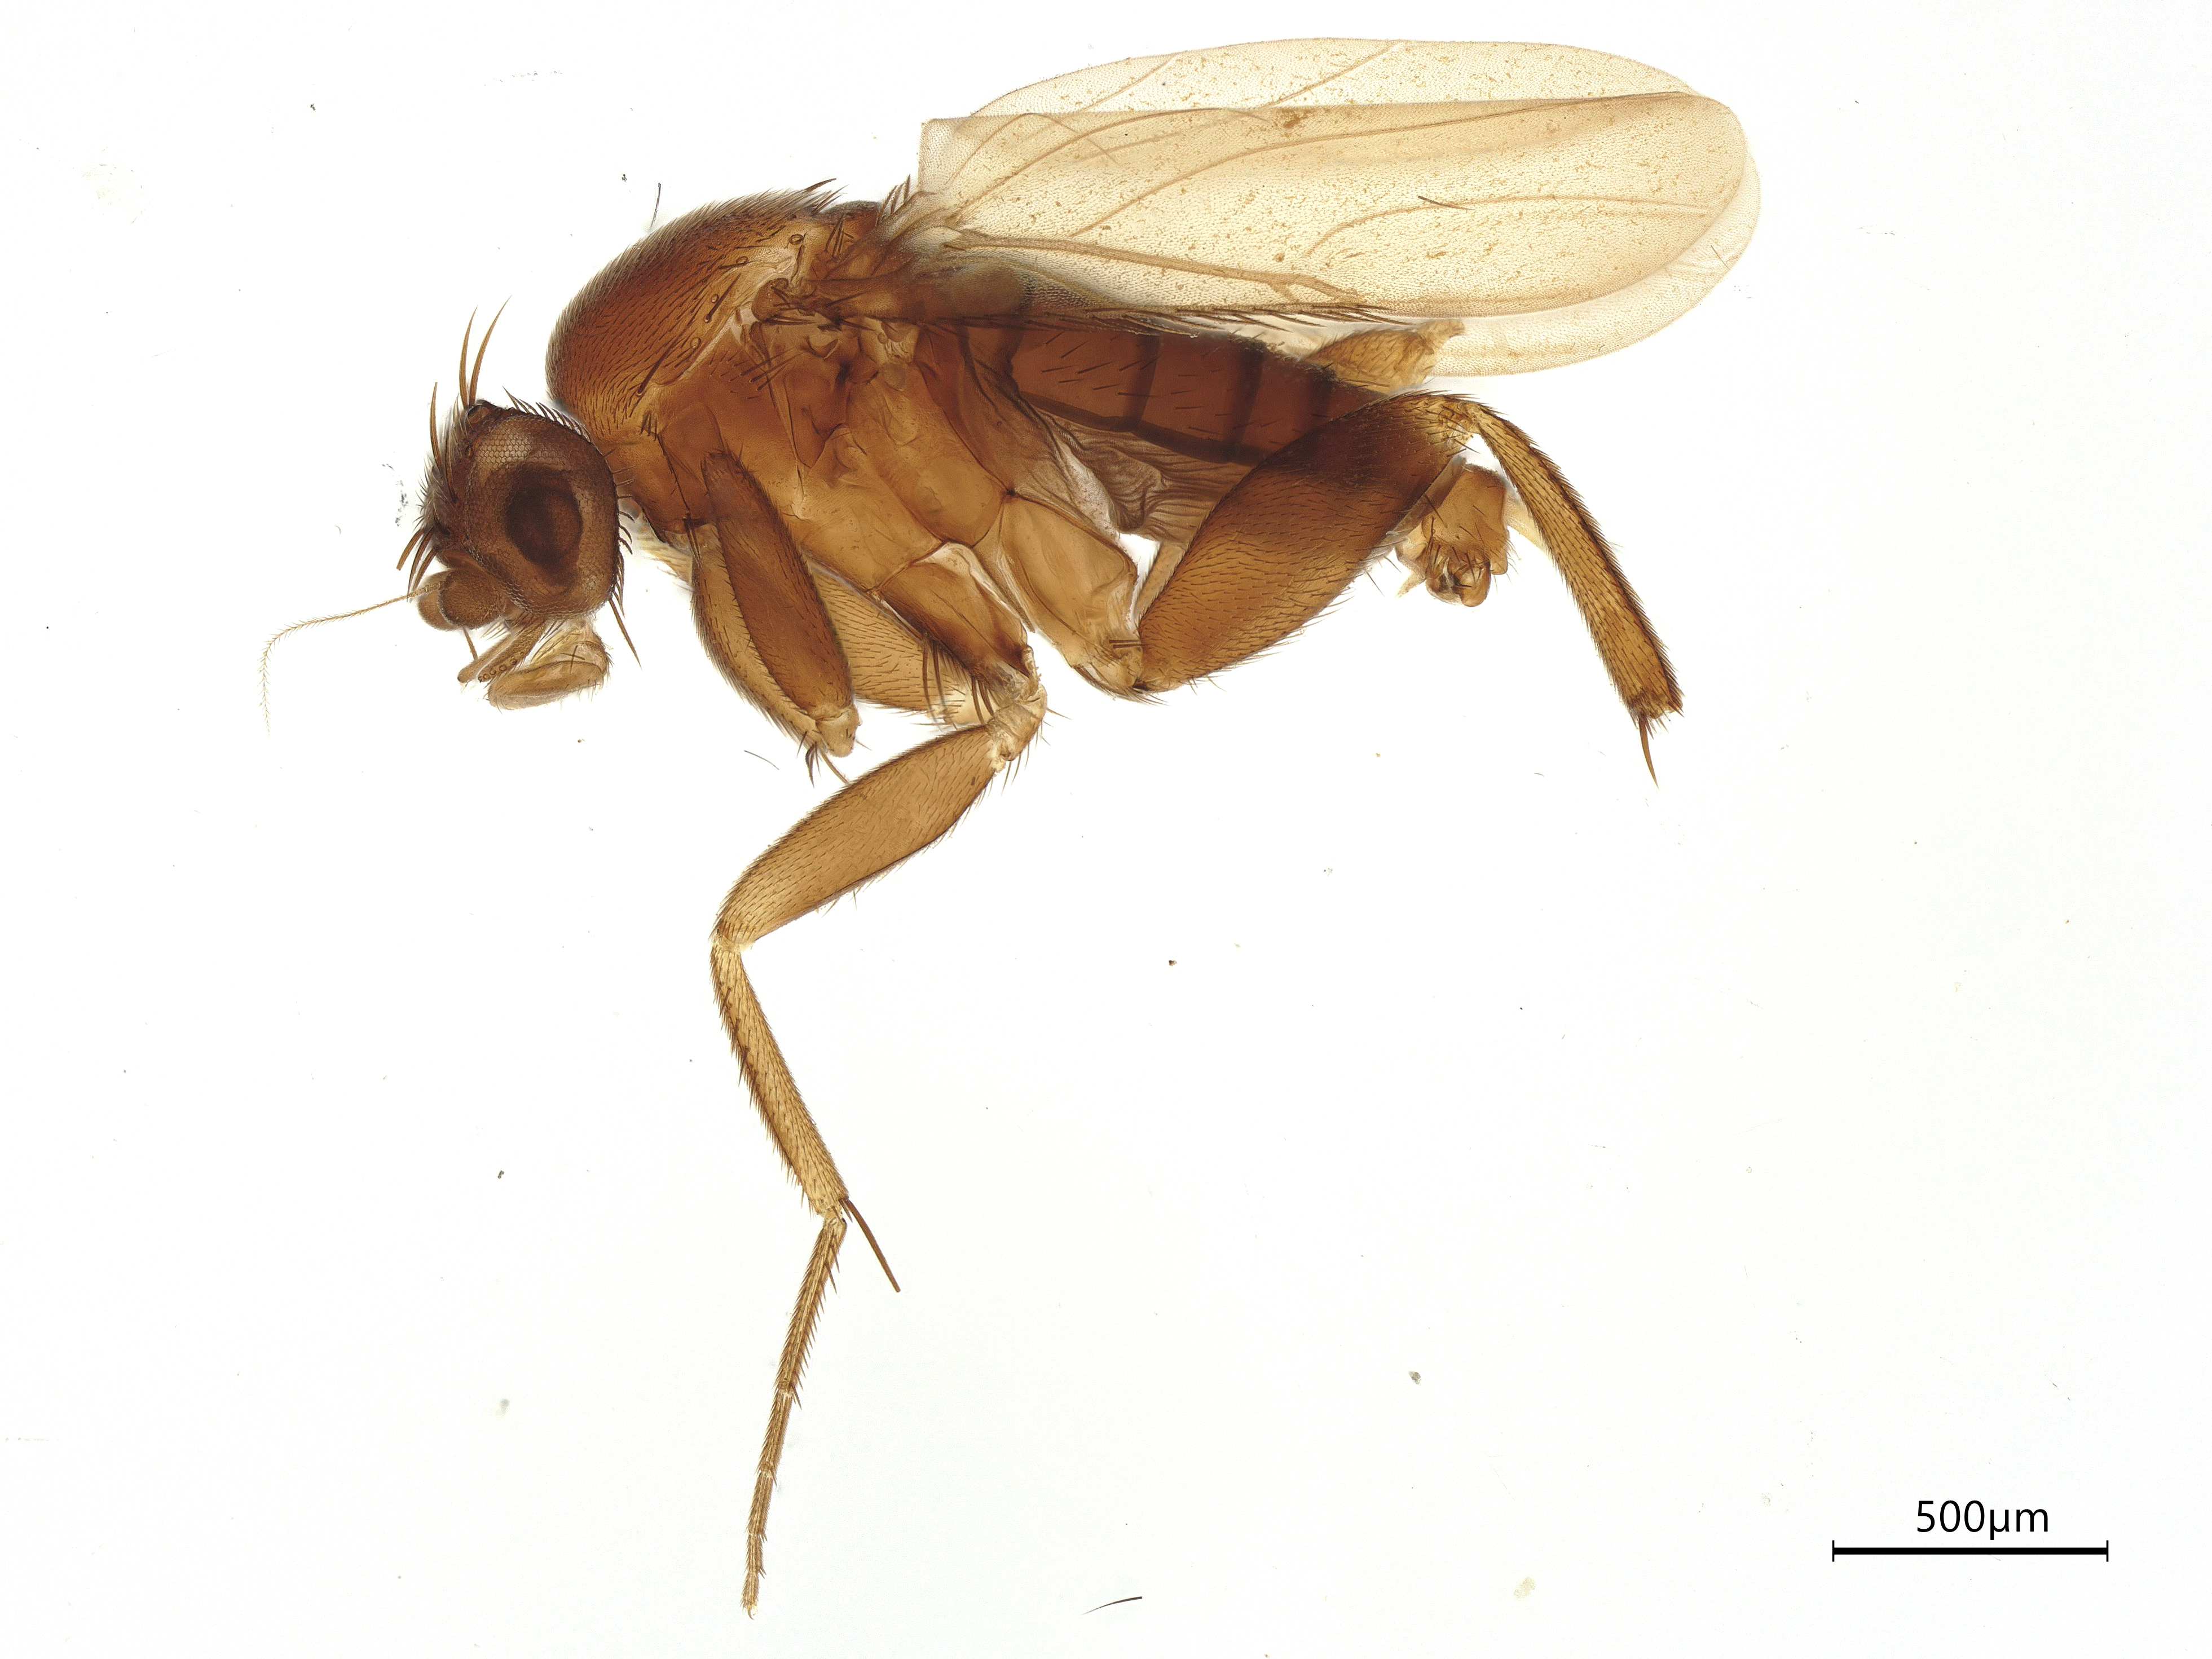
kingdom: Animalia
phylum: Arthropoda
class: Insecta
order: Diptera
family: Phoridae
